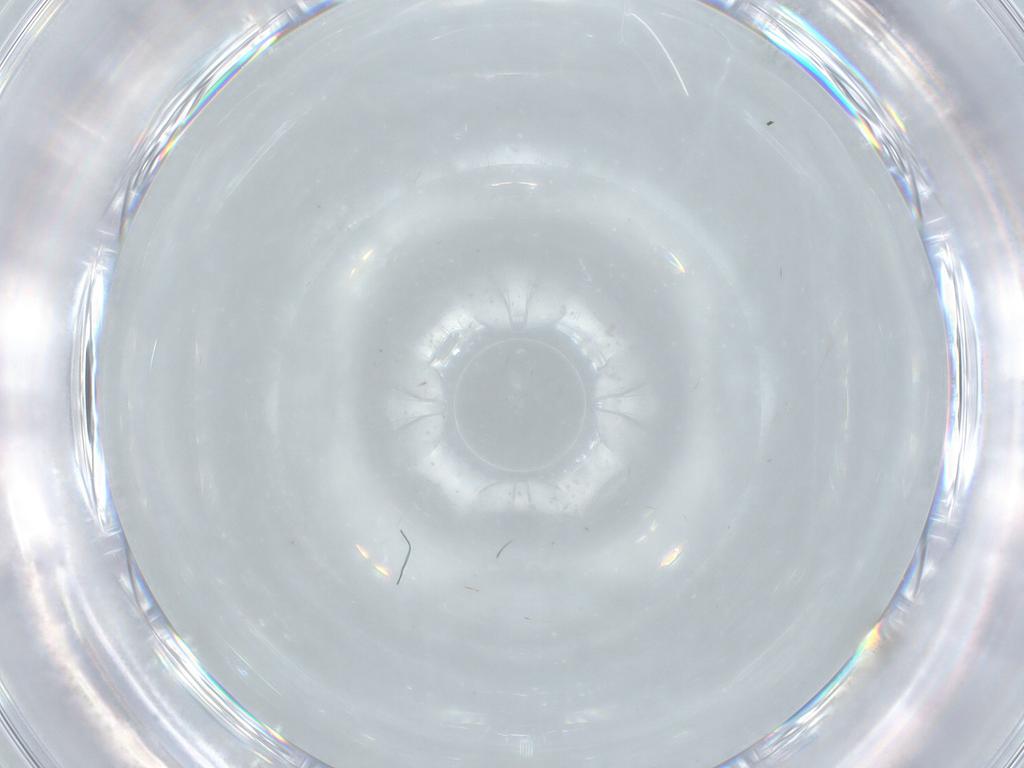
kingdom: Animalia
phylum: Arthropoda
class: Insecta
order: Diptera
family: Chironomidae
